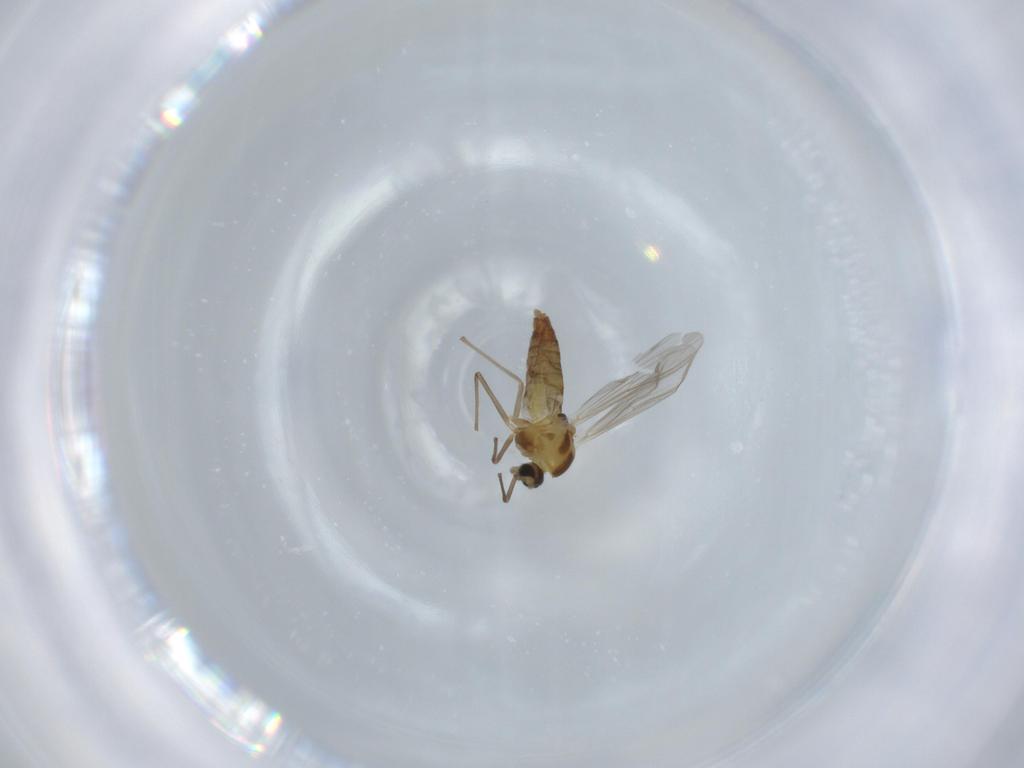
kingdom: Animalia
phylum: Arthropoda
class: Insecta
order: Diptera
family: Chironomidae
